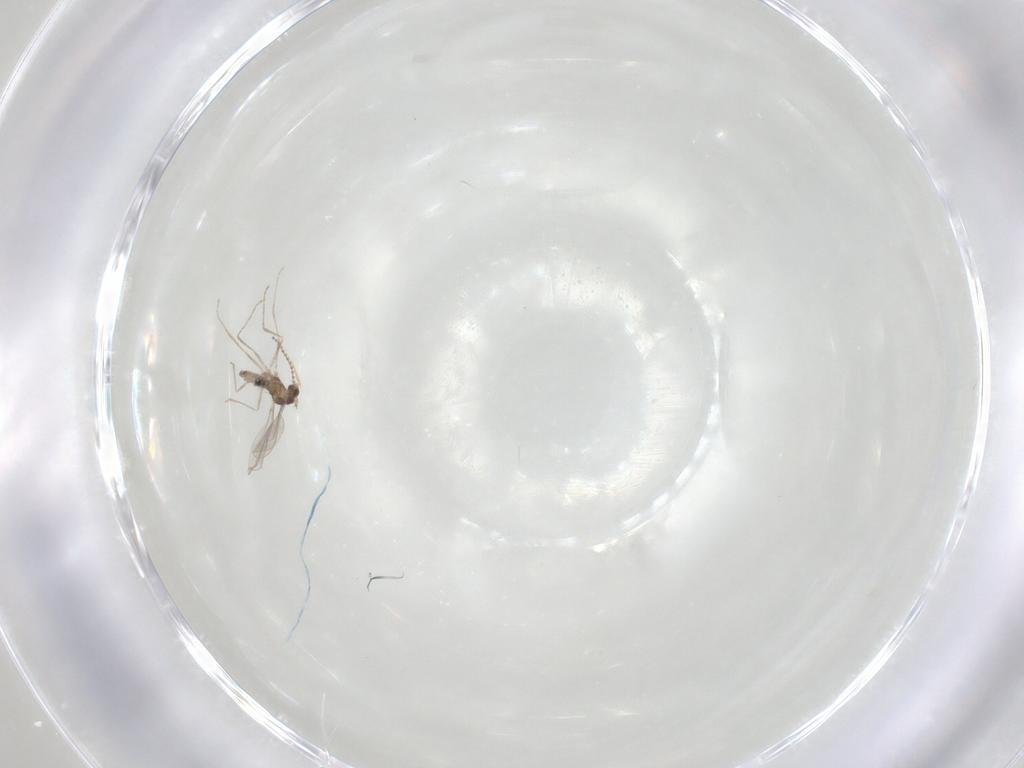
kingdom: Animalia
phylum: Arthropoda
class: Insecta
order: Diptera
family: Cecidomyiidae
